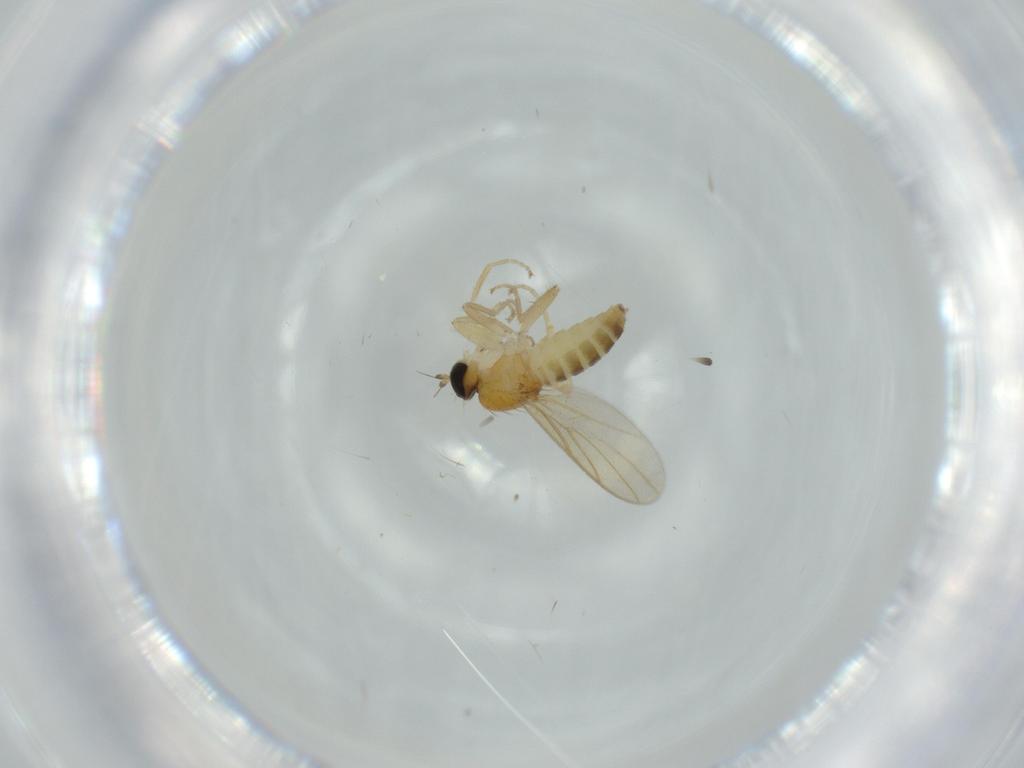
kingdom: Animalia
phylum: Arthropoda
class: Insecta
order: Diptera
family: Hybotidae
